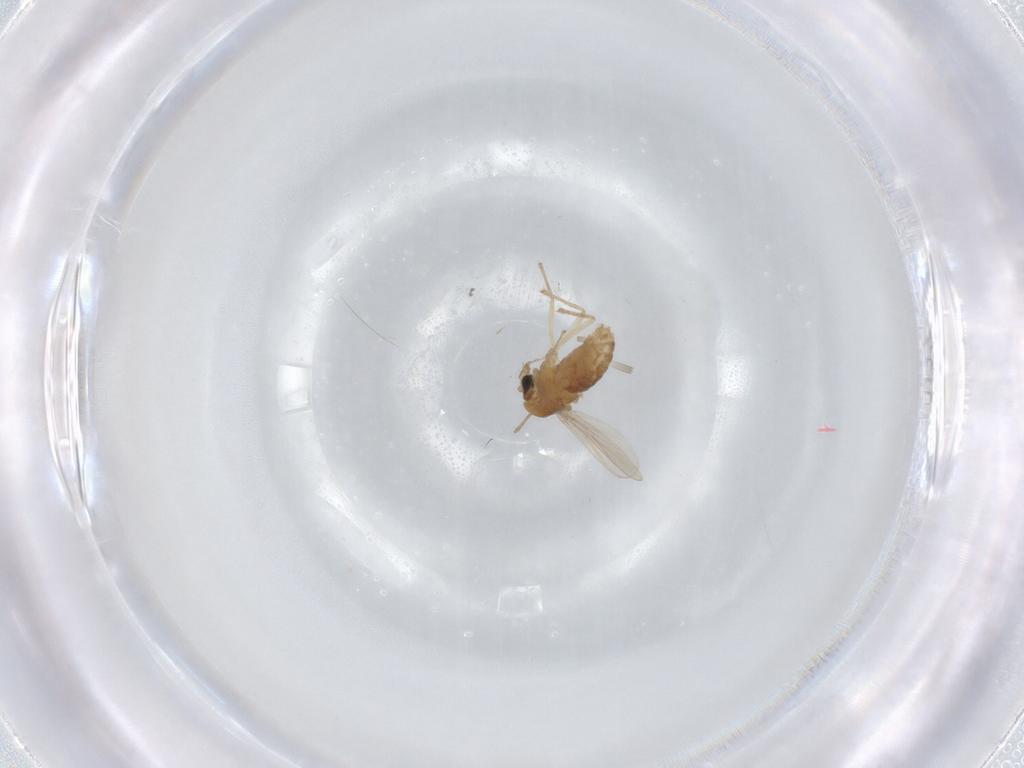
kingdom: Animalia
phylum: Arthropoda
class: Insecta
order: Diptera
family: Chironomidae
